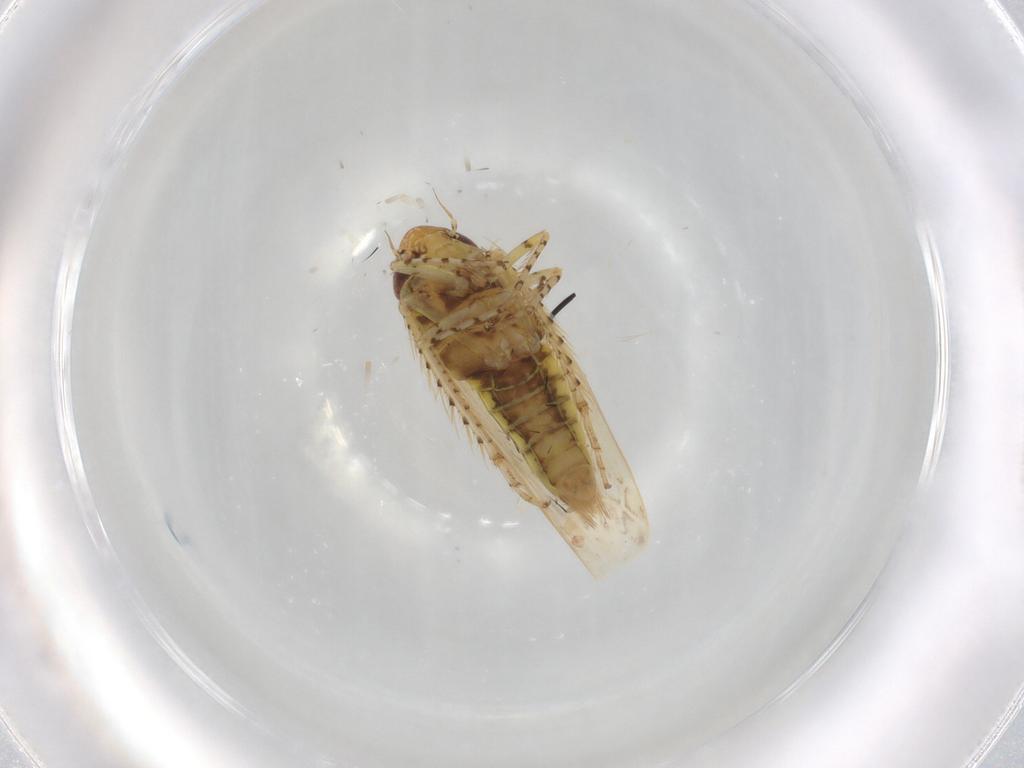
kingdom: Animalia
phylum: Arthropoda
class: Insecta
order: Hemiptera
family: Cicadellidae
